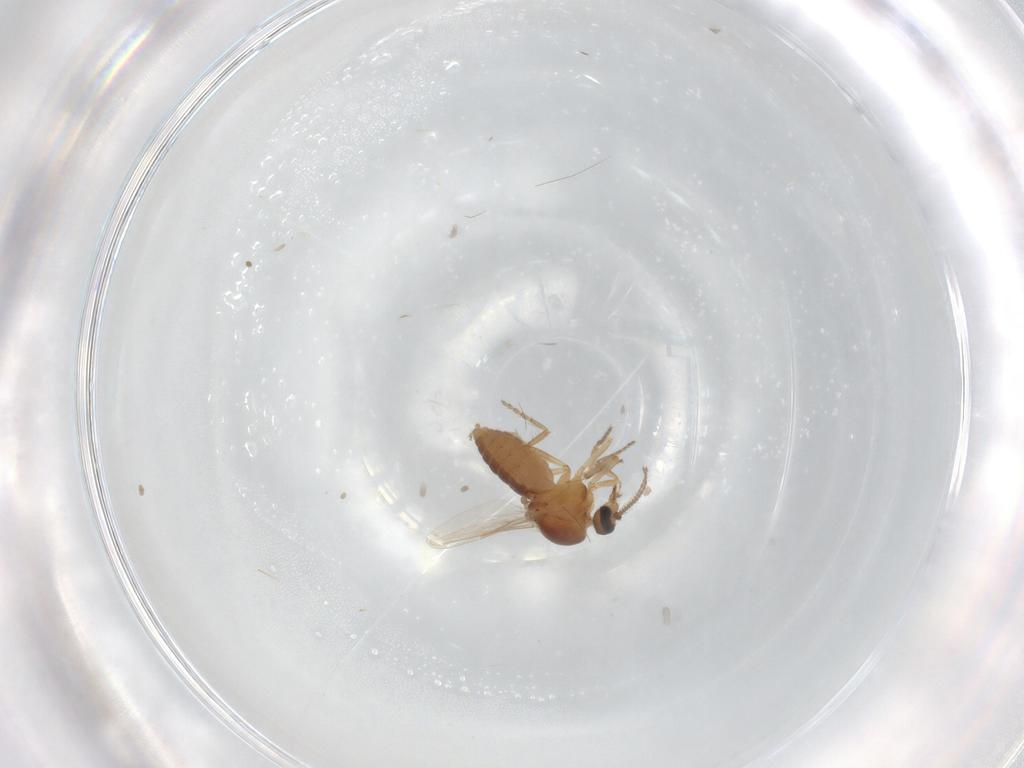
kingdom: Animalia
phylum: Arthropoda
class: Insecta
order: Diptera
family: Ceratopogonidae
